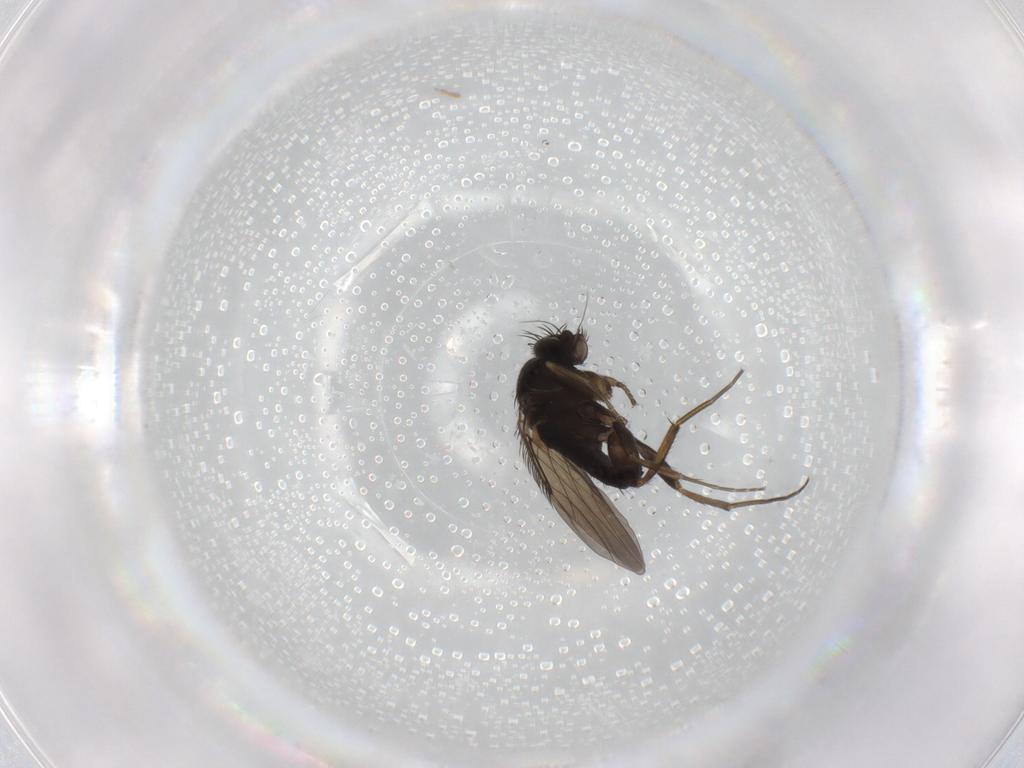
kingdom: Animalia
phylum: Arthropoda
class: Insecta
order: Diptera
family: Phoridae
